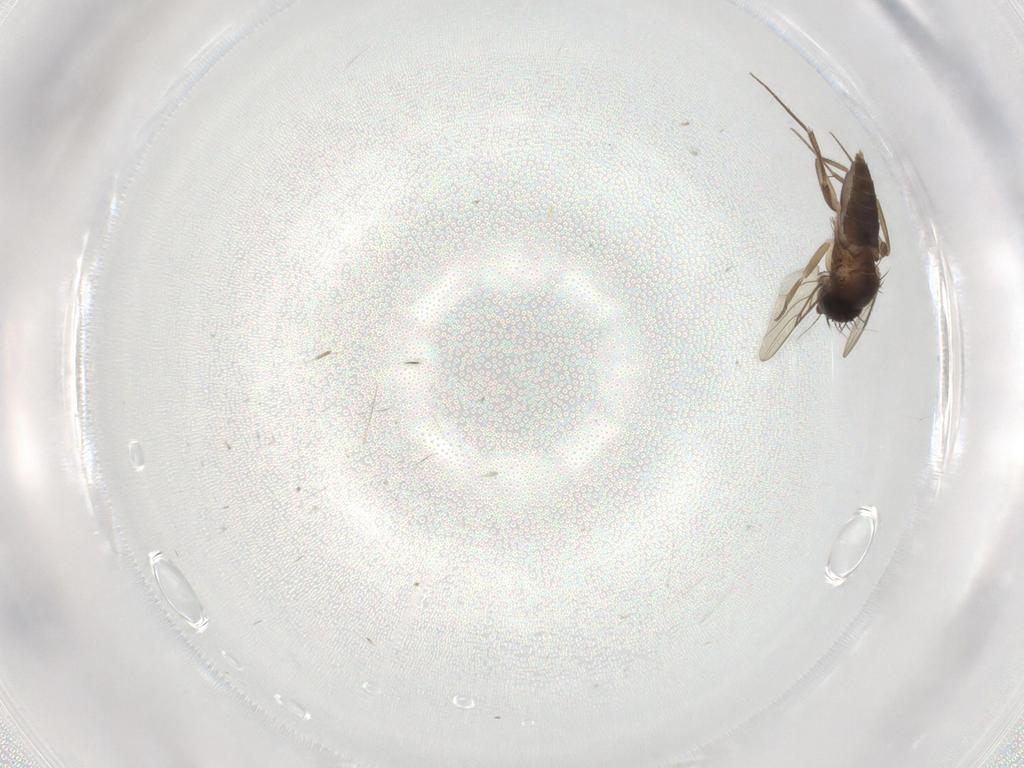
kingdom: Animalia
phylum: Arthropoda
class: Insecta
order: Diptera
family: Phoridae
